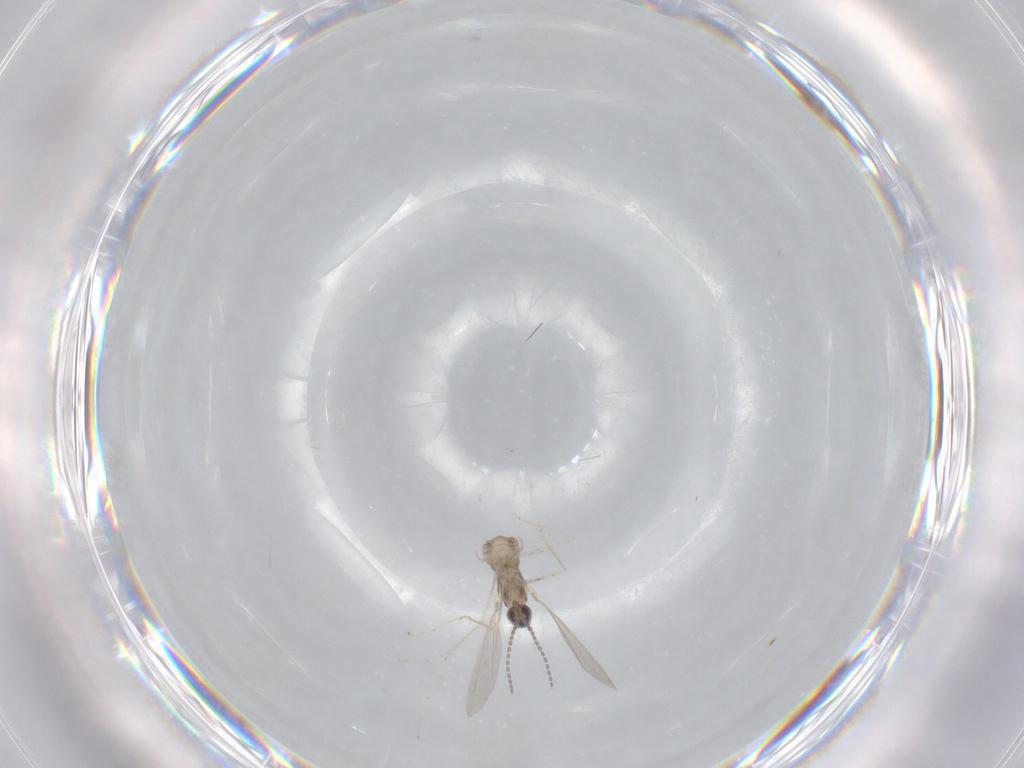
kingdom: Animalia
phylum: Arthropoda
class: Insecta
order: Diptera
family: Cecidomyiidae
